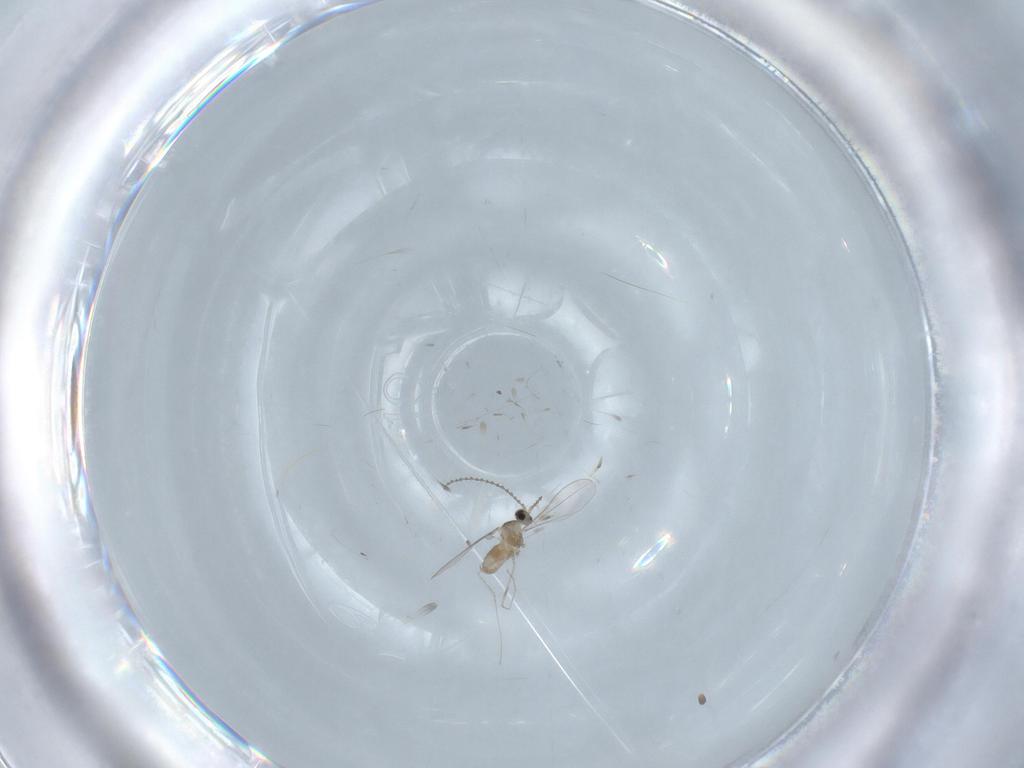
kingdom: Animalia
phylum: Arthropoda
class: Insecta
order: Diptera
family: Cecidomyiidae
